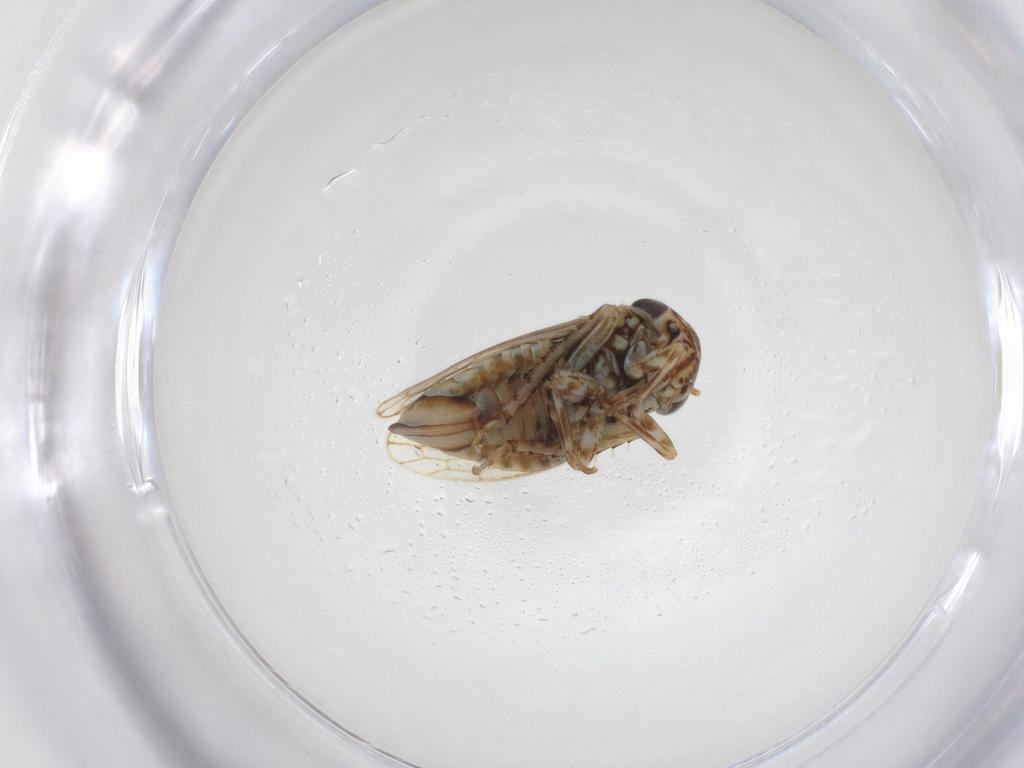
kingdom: Animalia
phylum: Arthropoda
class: Insecta
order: Hemiptera
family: Cicadellidae
